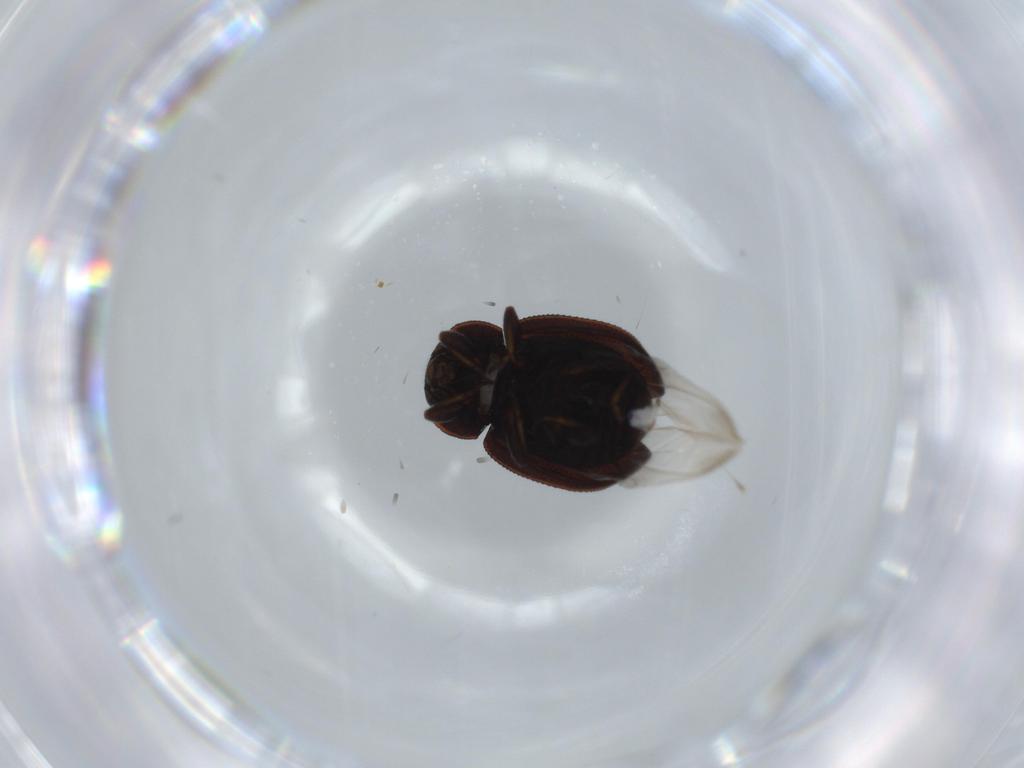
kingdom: Animalia
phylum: Arthropoda
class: Insecta
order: Coleoptera
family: Coccinellidae
